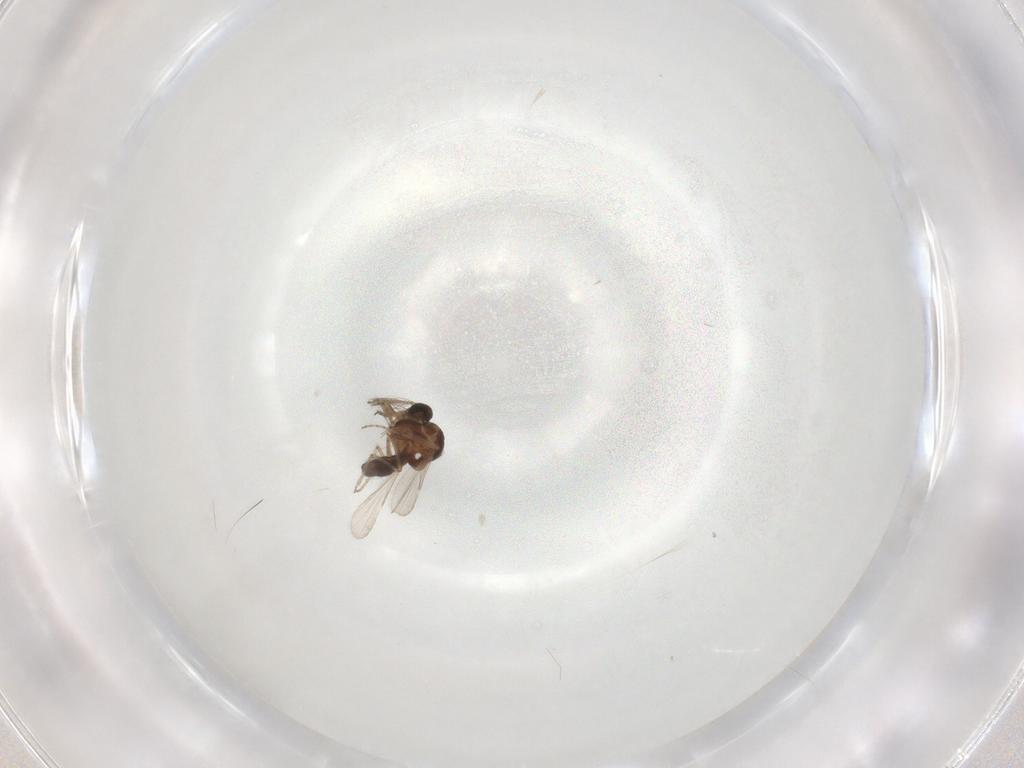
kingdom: Animalia
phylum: Arthropoda
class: Insecta
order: Diptera
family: Ceratopogonidae
